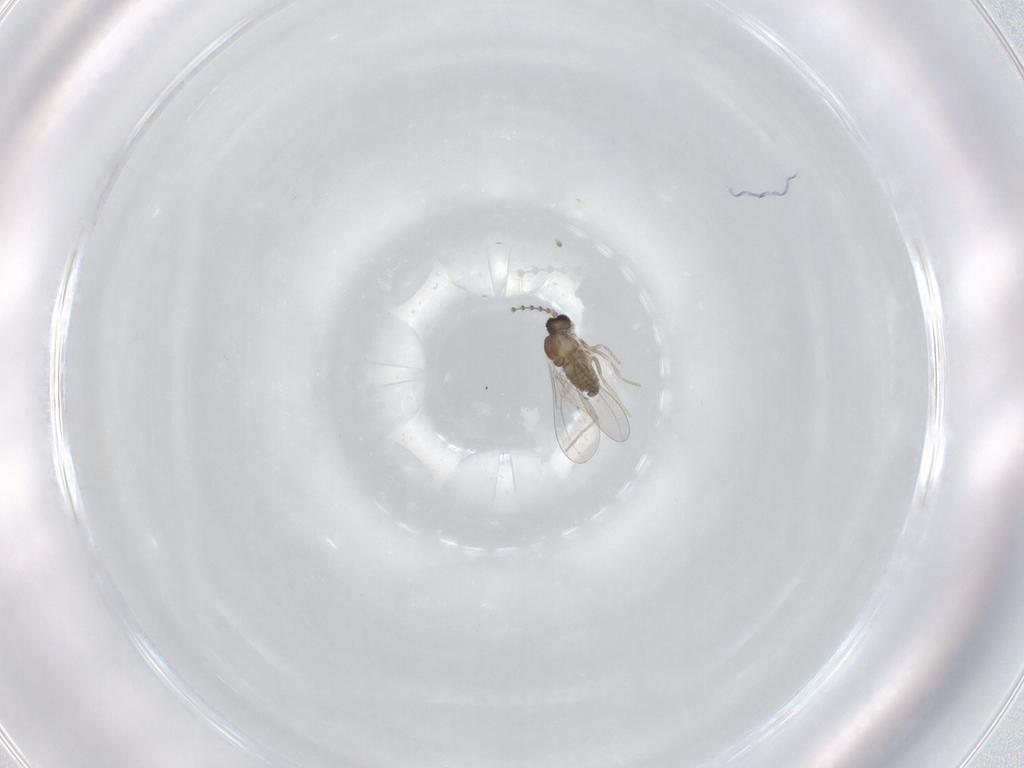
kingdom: Animalia
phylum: Arthropoda
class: Insecta
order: Diptera
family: Cecidomyiidae
